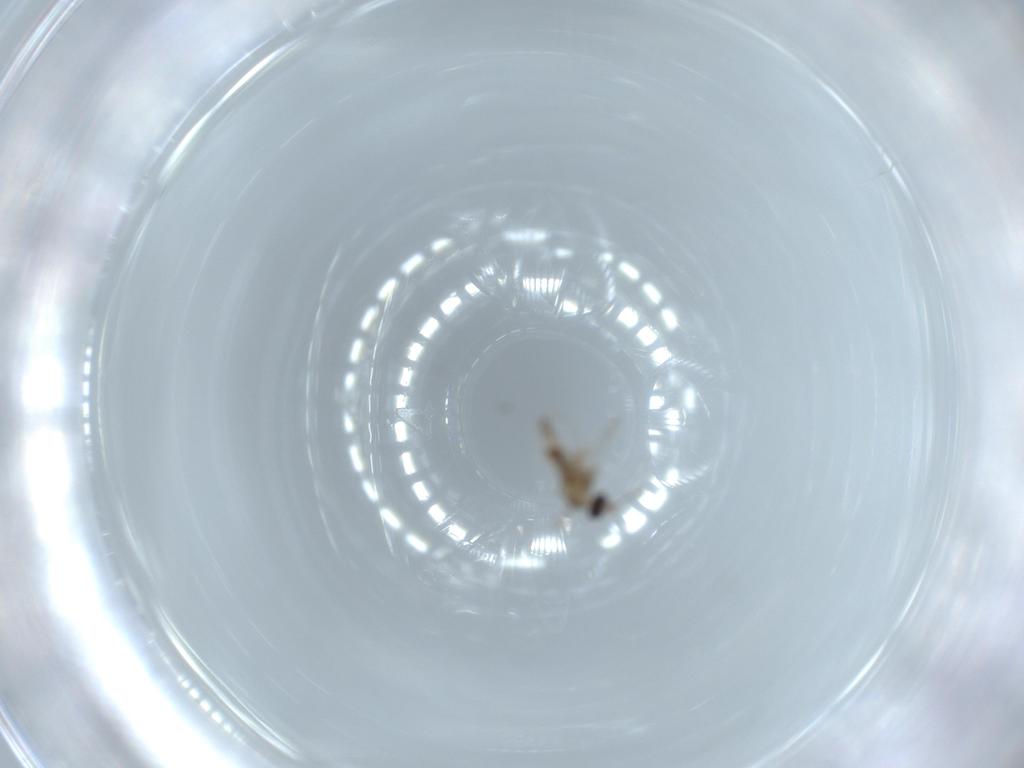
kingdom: Animalia
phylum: Arthropoda
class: Insecta
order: Diptera
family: Cecidomyiidae
